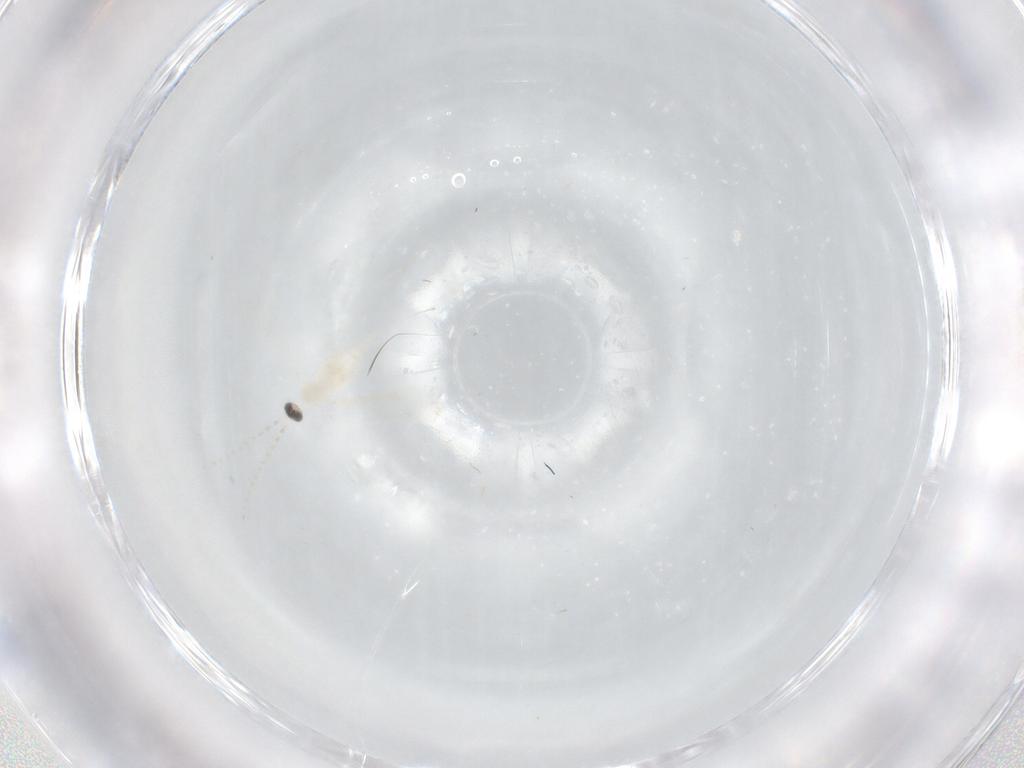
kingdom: Animalia
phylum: Arthropoda
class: Insecta
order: Diptera
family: Cecidomyiidae
